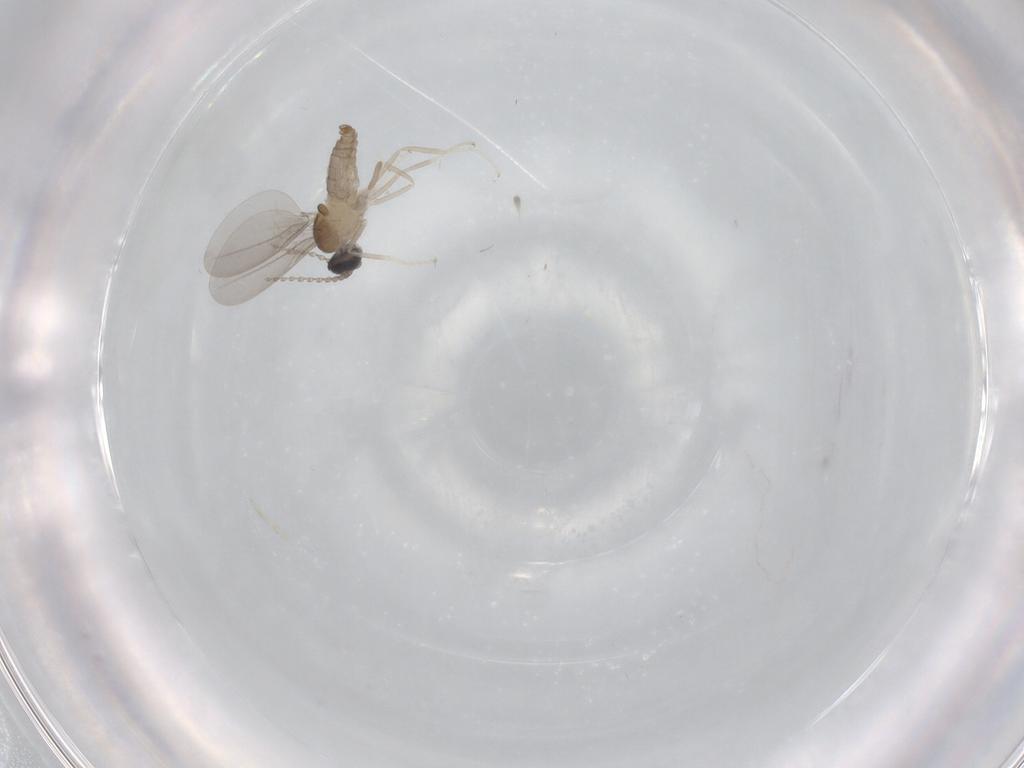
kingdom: Animalia
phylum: Arthropoda
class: Insecta
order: Diptera
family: Cecidomyiidae
